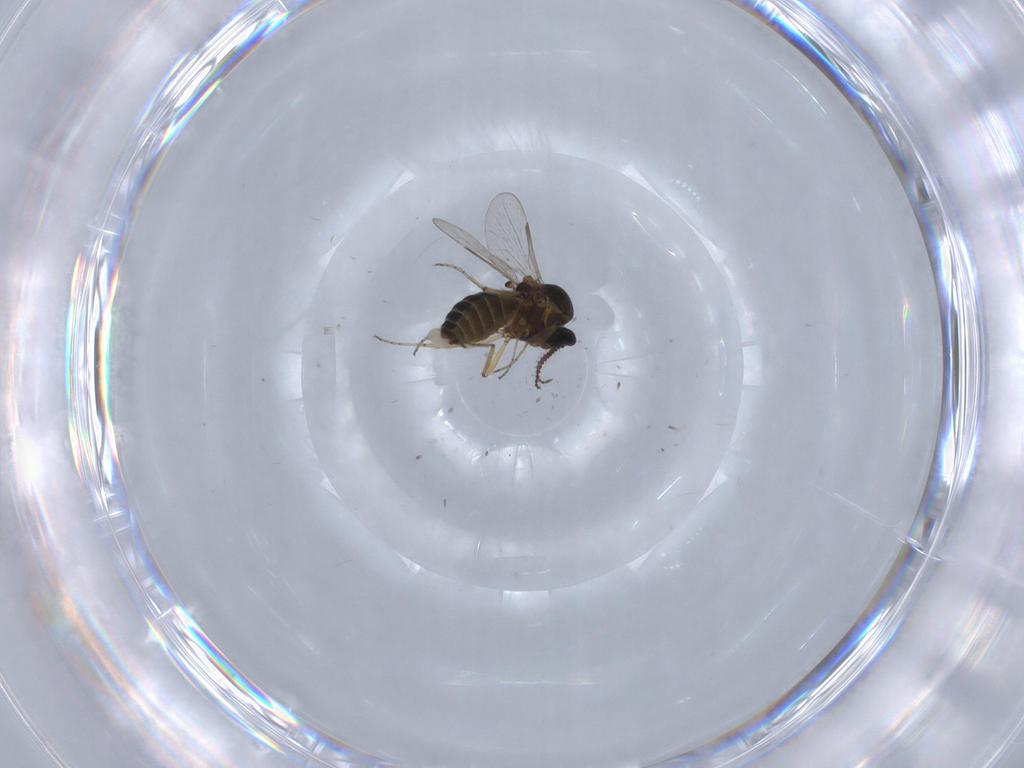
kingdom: Animalia
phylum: Arthropoda
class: Insecta
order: Diptera
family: Ceratopogonidae
